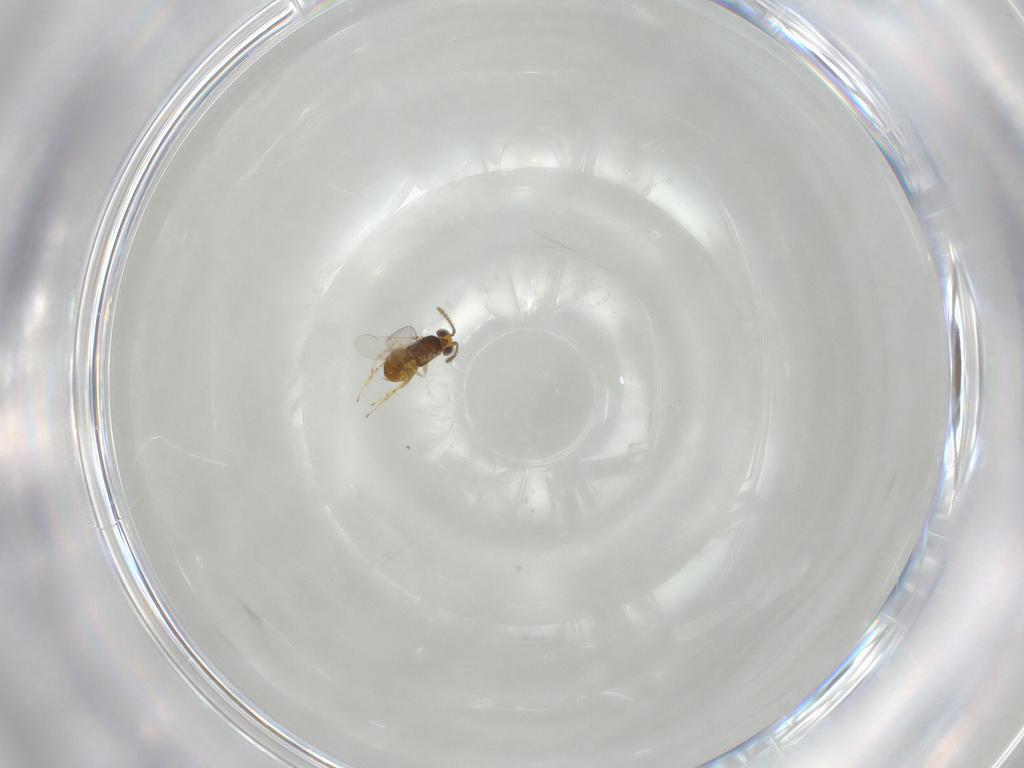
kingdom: Animalia
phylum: Arthropoda
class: Insecta
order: Hymenoptera
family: Encyrtidae
